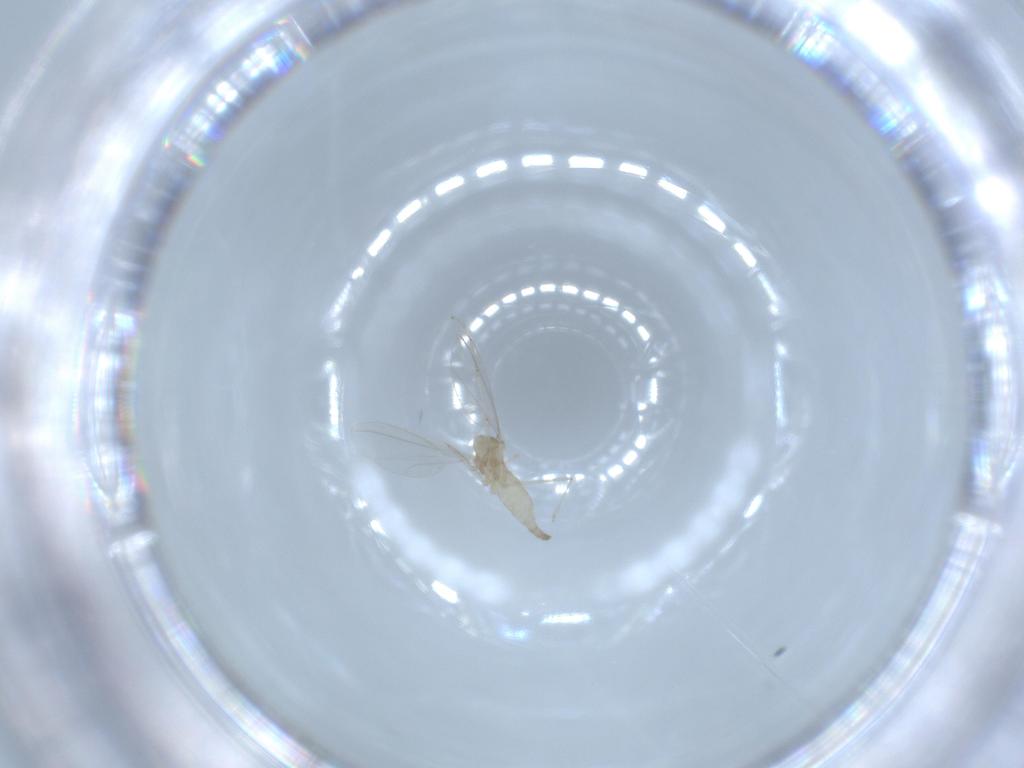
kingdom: Animalia
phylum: Arthropoda
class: Insecta
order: Diptera
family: Cecidomyiidae
